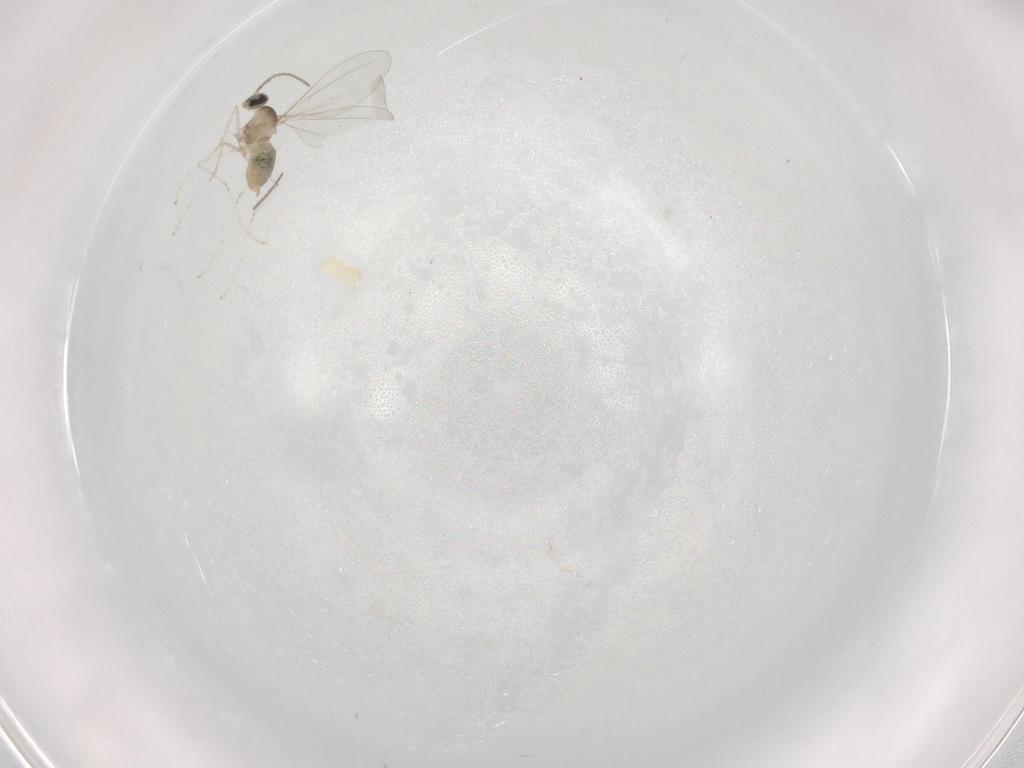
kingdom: Animalia
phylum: Arthropoda
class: Insecta
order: Diptera
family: Cecidomyiidae
